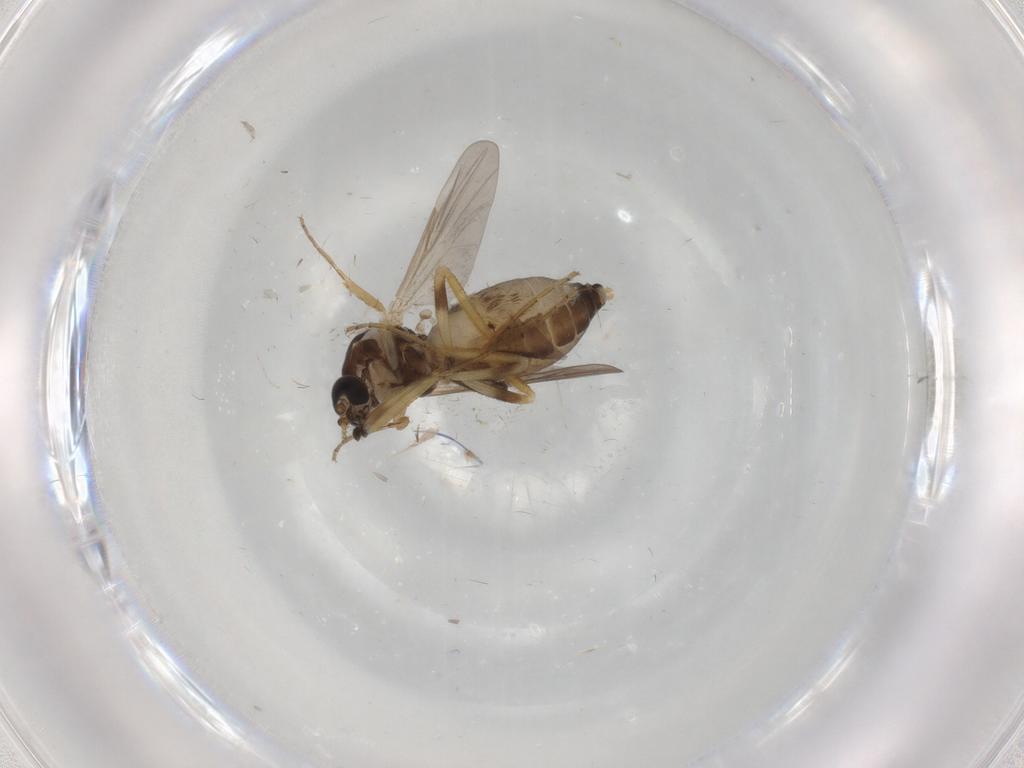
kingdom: Animalia
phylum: Arthropoda
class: Insecta
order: Diptera
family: Ceratopogonidae
